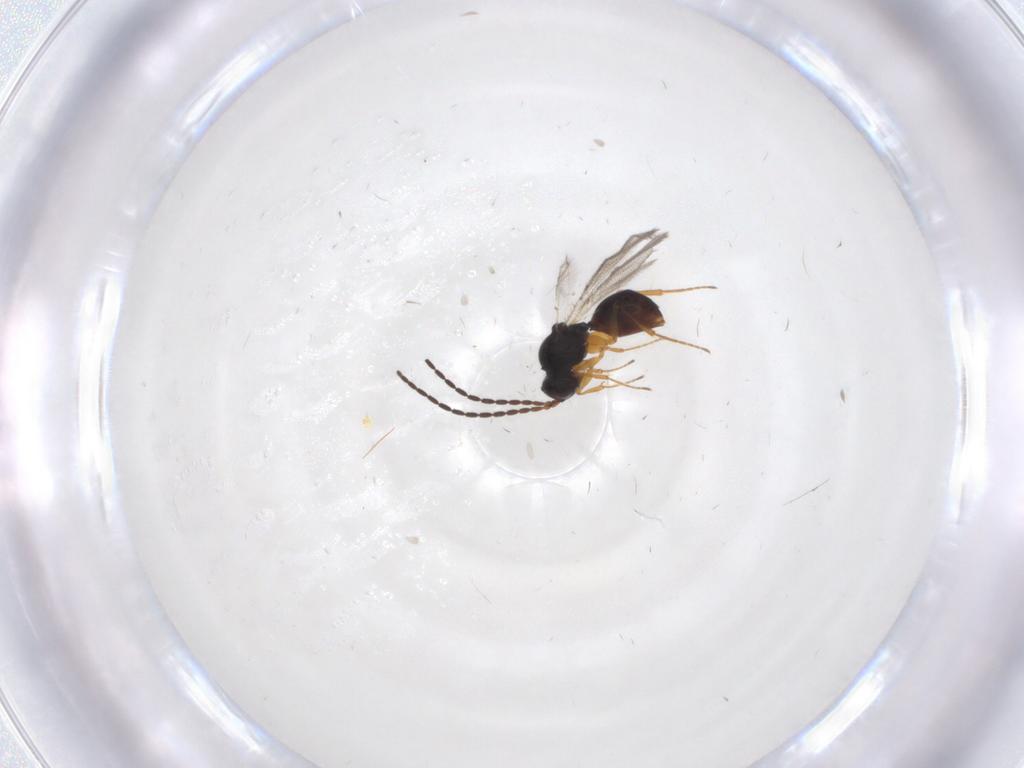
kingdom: Animalia
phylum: Arthropoda
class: Insecta
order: Hymenoptera
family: Figitidae
